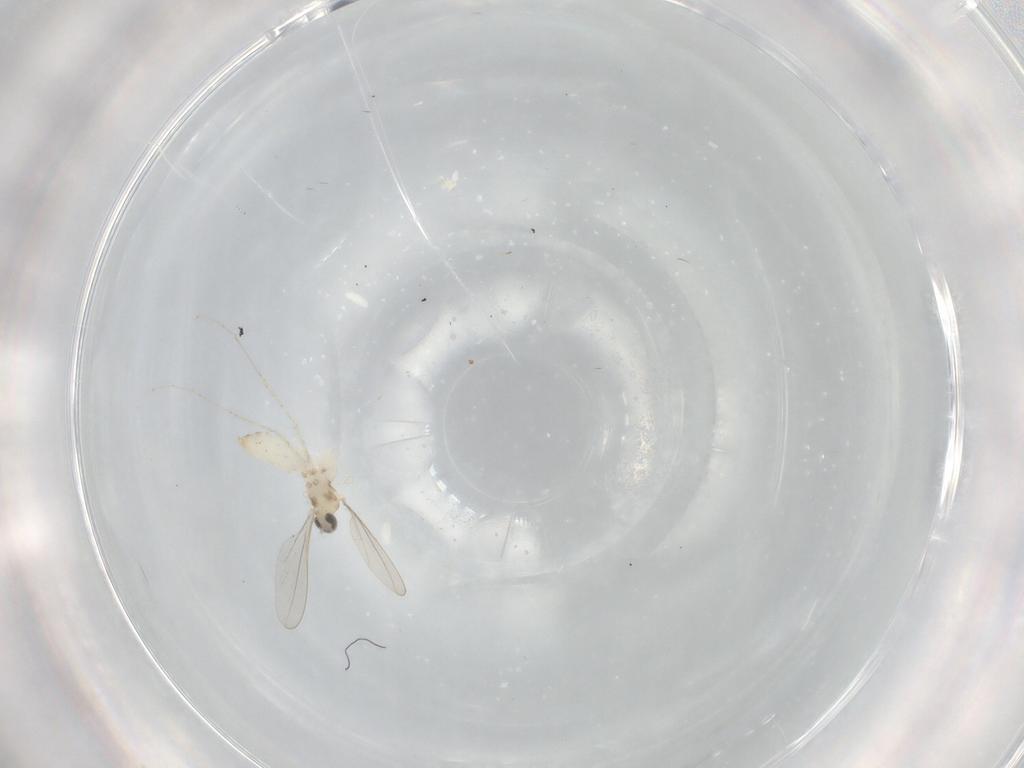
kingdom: Animalia
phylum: Arthropoda
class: Insecta
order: Diptera
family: Cecidomyiidae
